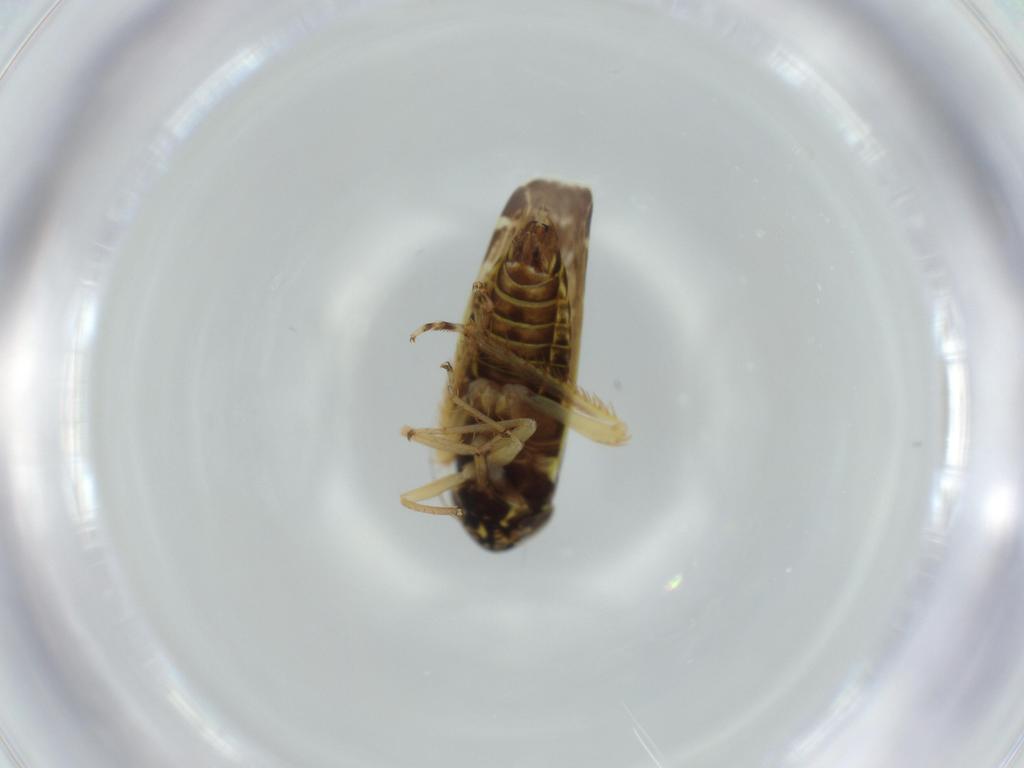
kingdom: Animalia
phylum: Arthropoda
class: Insecta
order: Hemiptera
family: Cicadellidae
